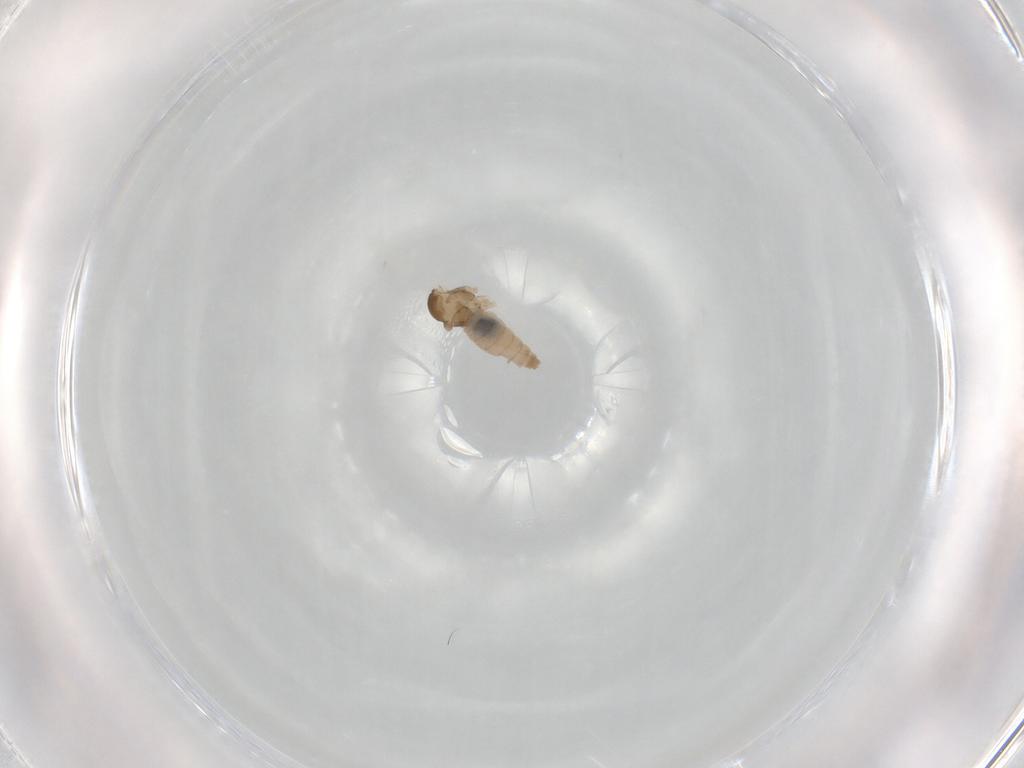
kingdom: Animalia
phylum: Arthropoda
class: Insecta
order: Diptera
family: Cecidomyiidae
